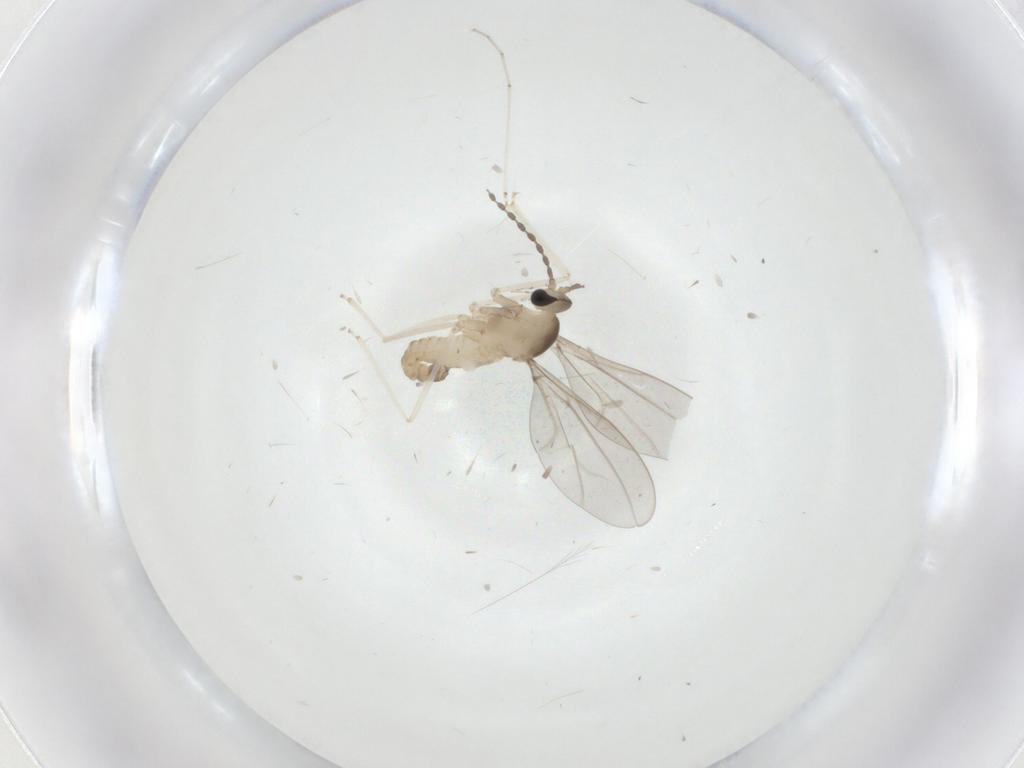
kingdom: Animalia
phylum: Arthropoda
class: Insecta
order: Diptera
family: Cecidomyiidae
